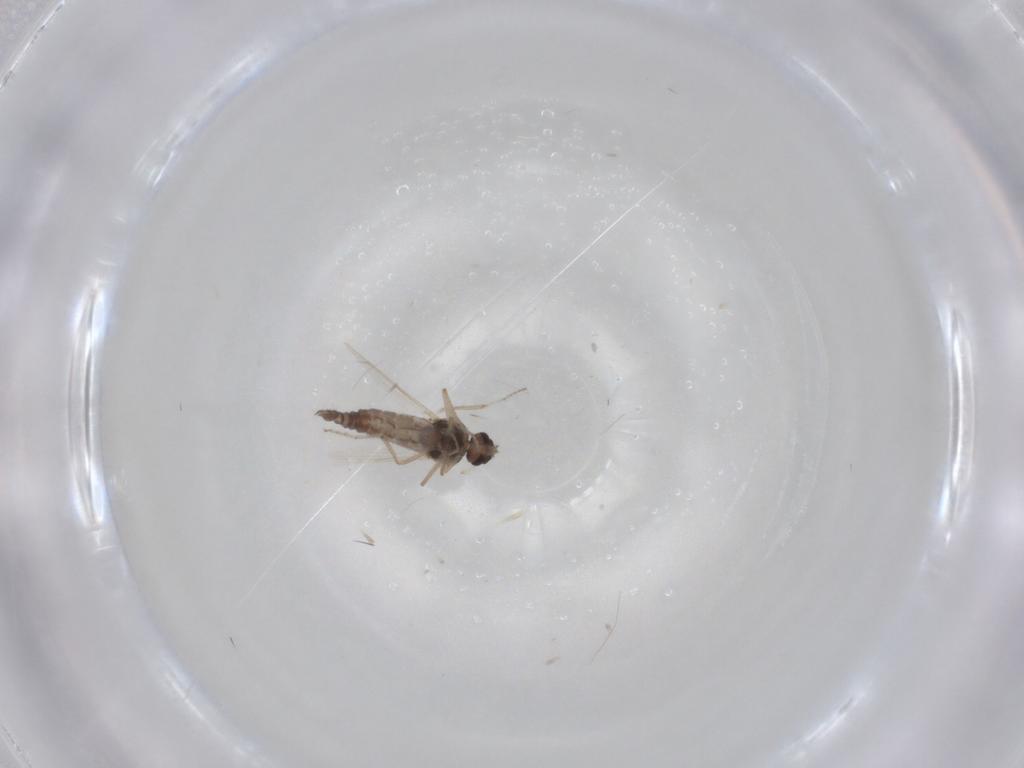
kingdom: Animalia
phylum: Arthropoda
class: Insecta
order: Diptera
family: Ceratopogonidae
